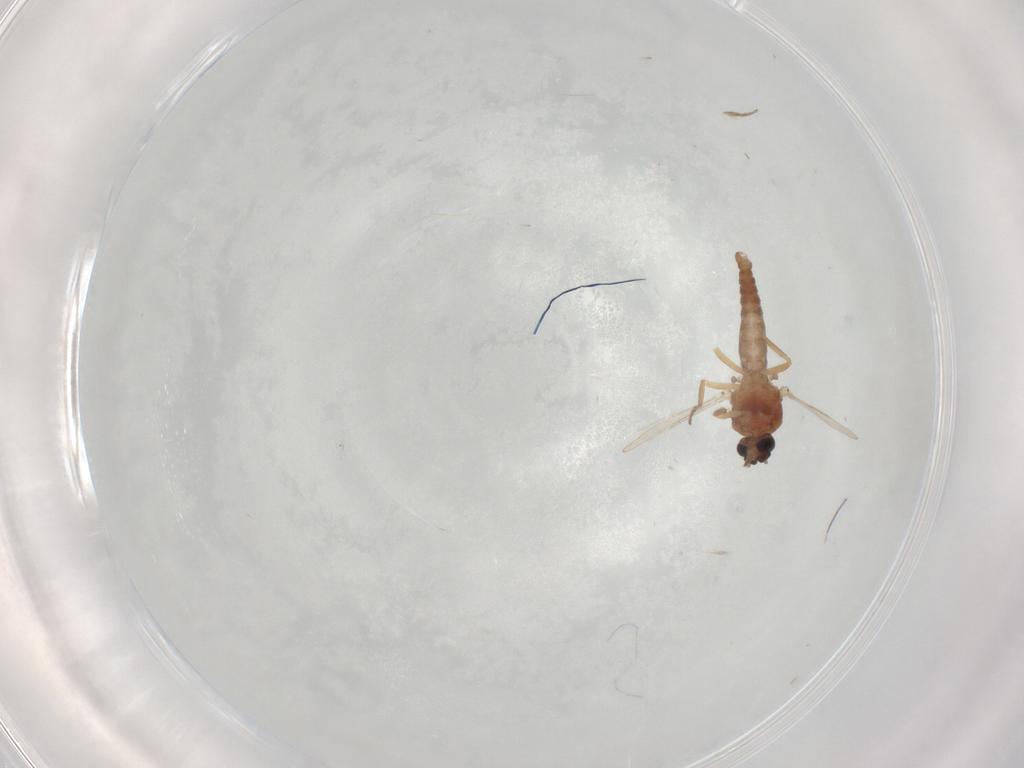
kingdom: Animalia
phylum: Arthropoda
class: Insecta
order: Diptera
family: Ceratopogonidae
